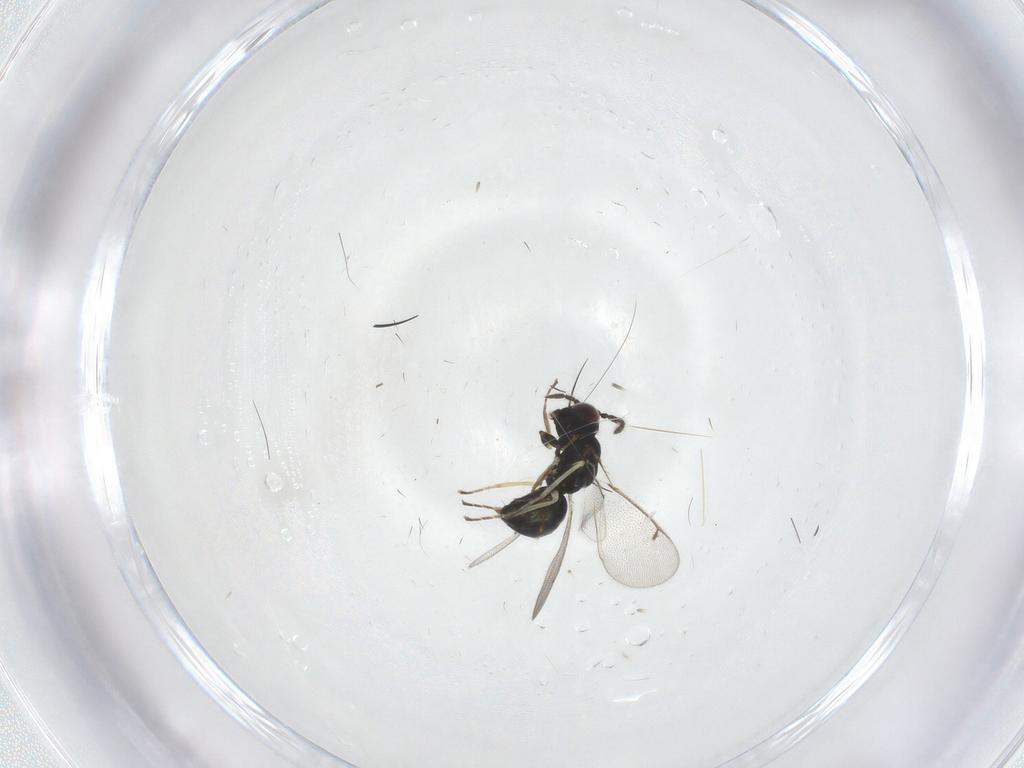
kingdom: Animalia
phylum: Arthropoda
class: Insecta
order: Hymenoptera
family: Eulophidae
